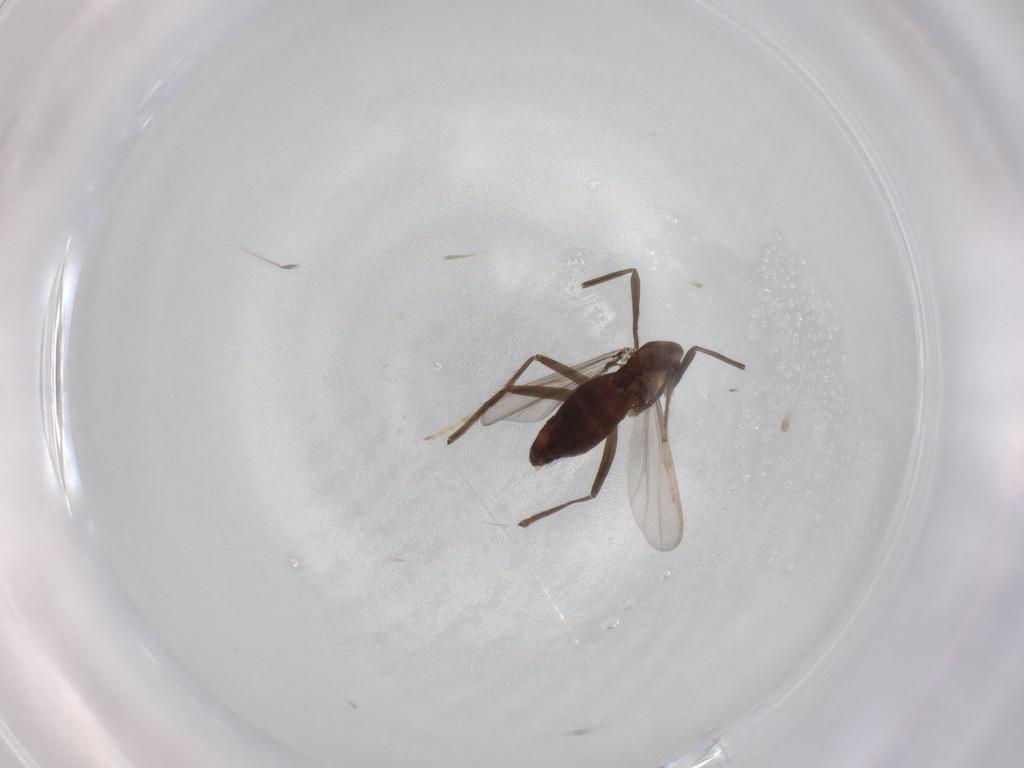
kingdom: Animalia
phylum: Arthropoda
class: Insecta
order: Diptera
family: Chironomidae
